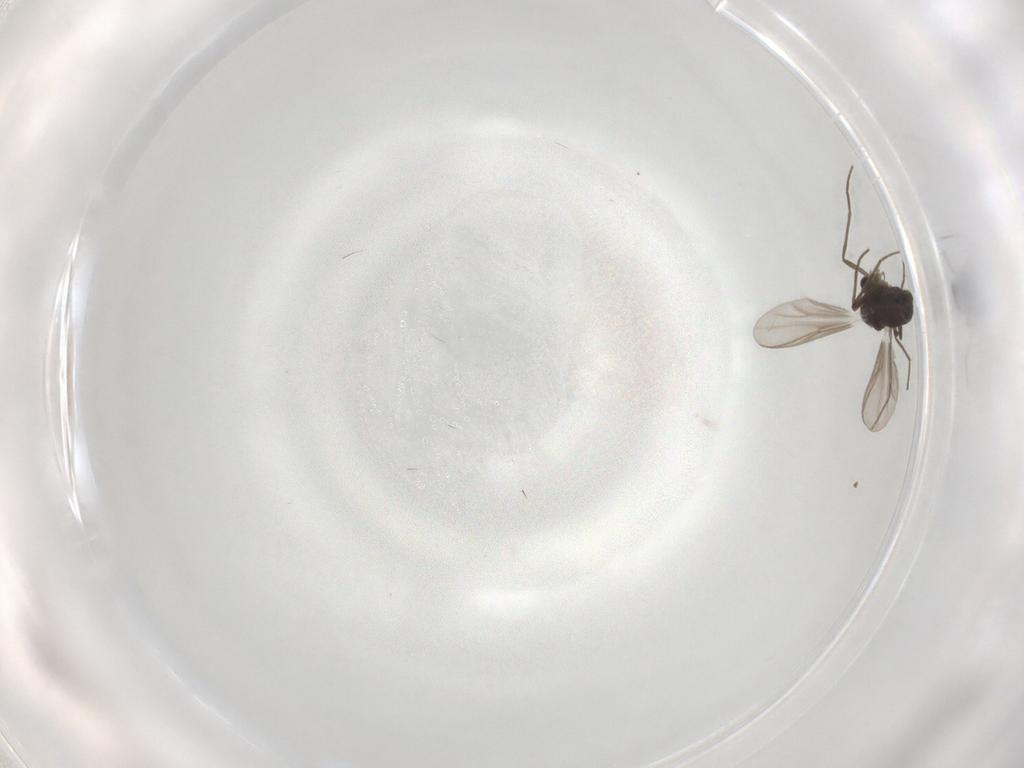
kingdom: Animalia
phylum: Arthropoda
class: Insecta
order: Diptera
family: Chironomidae
